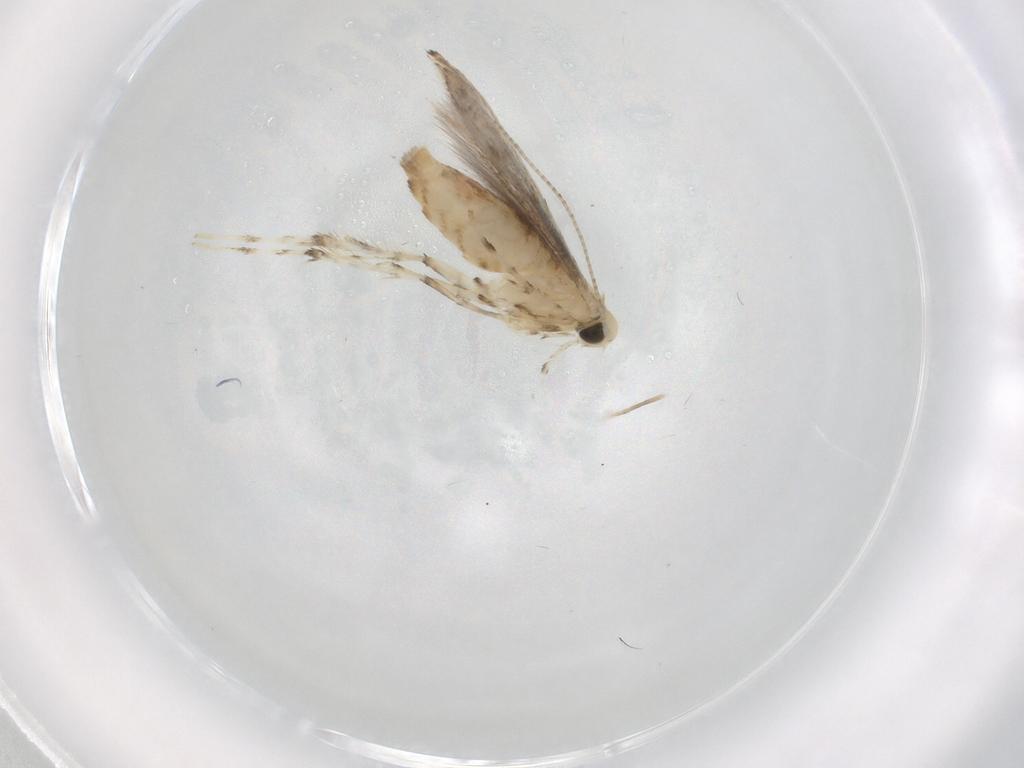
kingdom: Animalia
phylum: Arthropoda
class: Insecta
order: Lepidoptera
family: Gracillariidae
